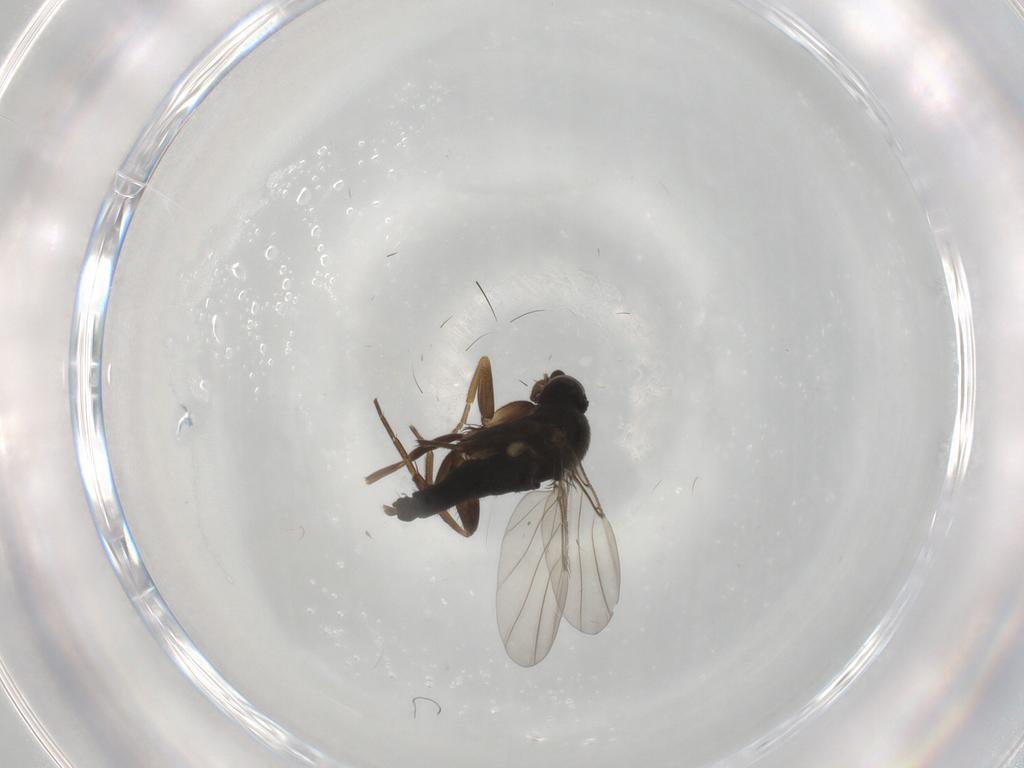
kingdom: Animalia
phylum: Arthropoda
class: Insecta
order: Diptera
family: Phoridae
